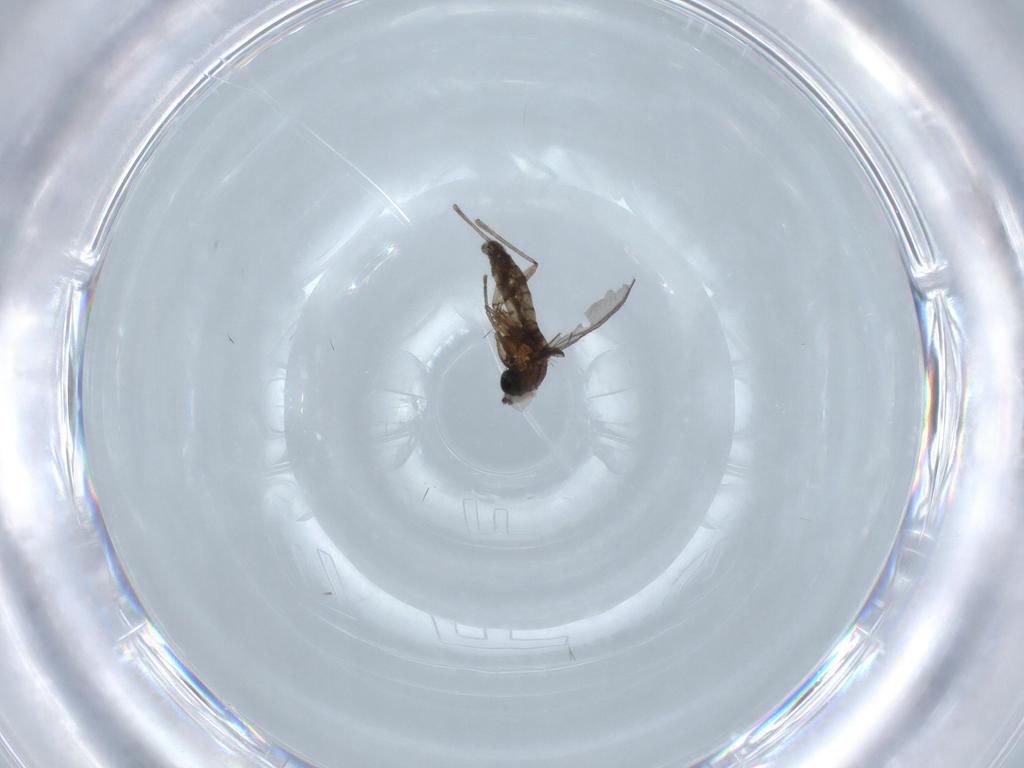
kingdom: Animalia
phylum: Arthropoda
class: Insecta
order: Diptera
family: Cecidomyiidae
